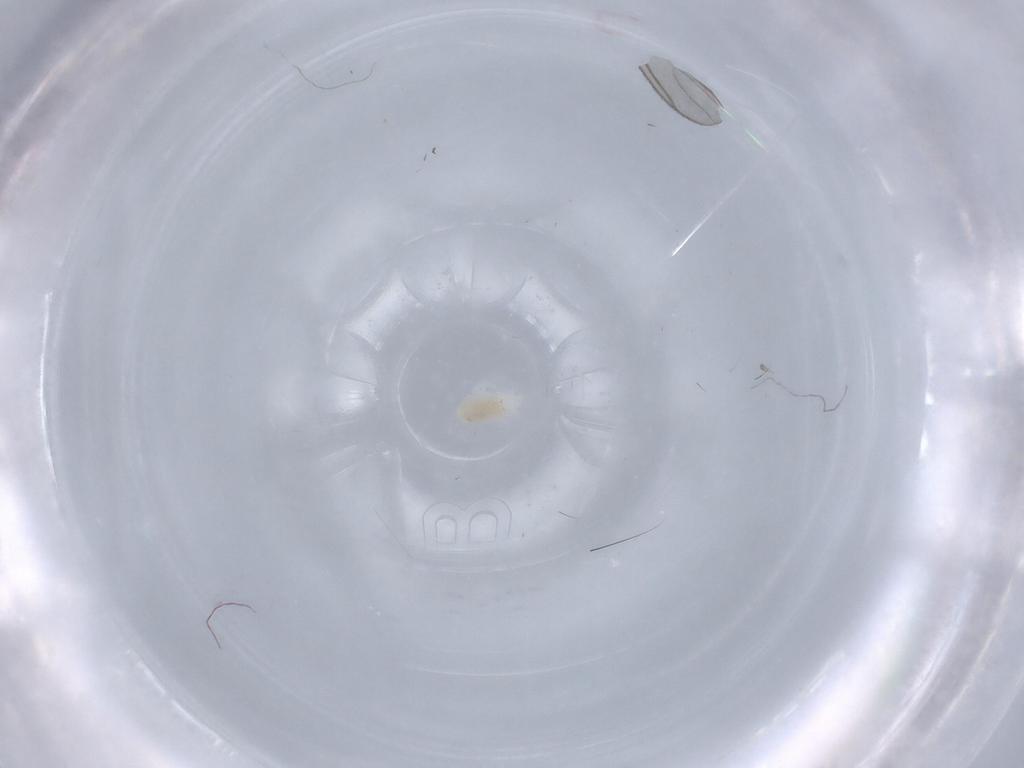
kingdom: Animalia
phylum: Arthropoda
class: Arachnida
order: Trombidiformes
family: Rhagidiidae
